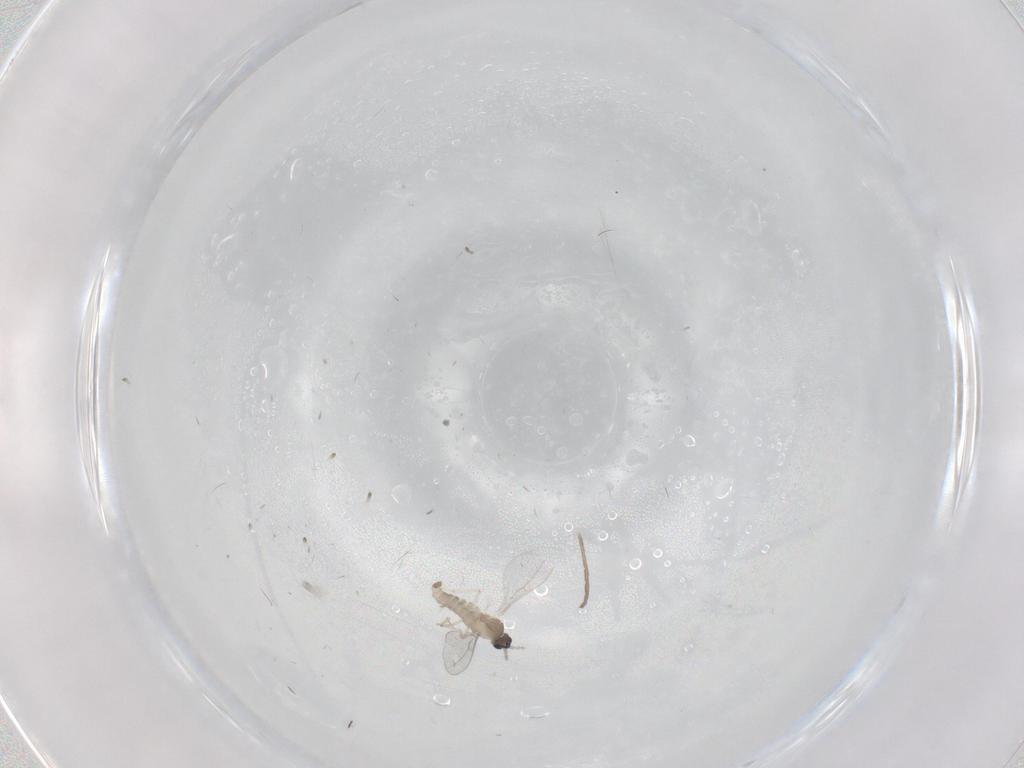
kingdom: Animalia
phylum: Arthropoda
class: Insecta
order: Diptera
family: Cecidomyiidae
